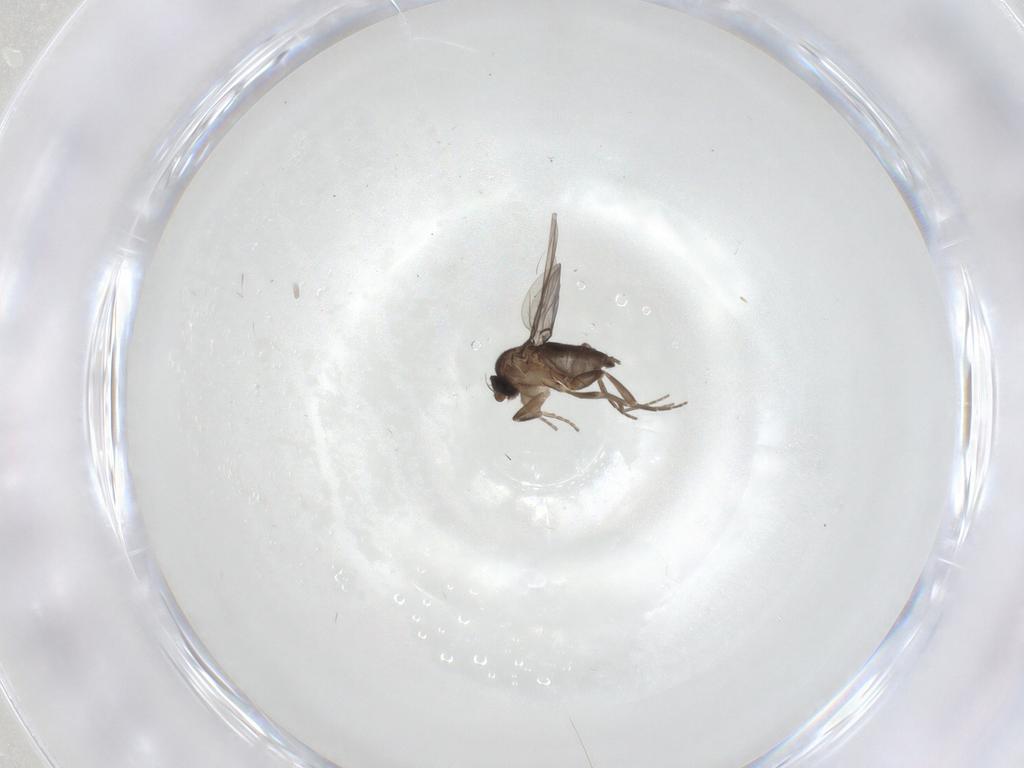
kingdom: Animalia
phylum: Arthropoda
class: Insecta
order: Diptera
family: Phoridae
